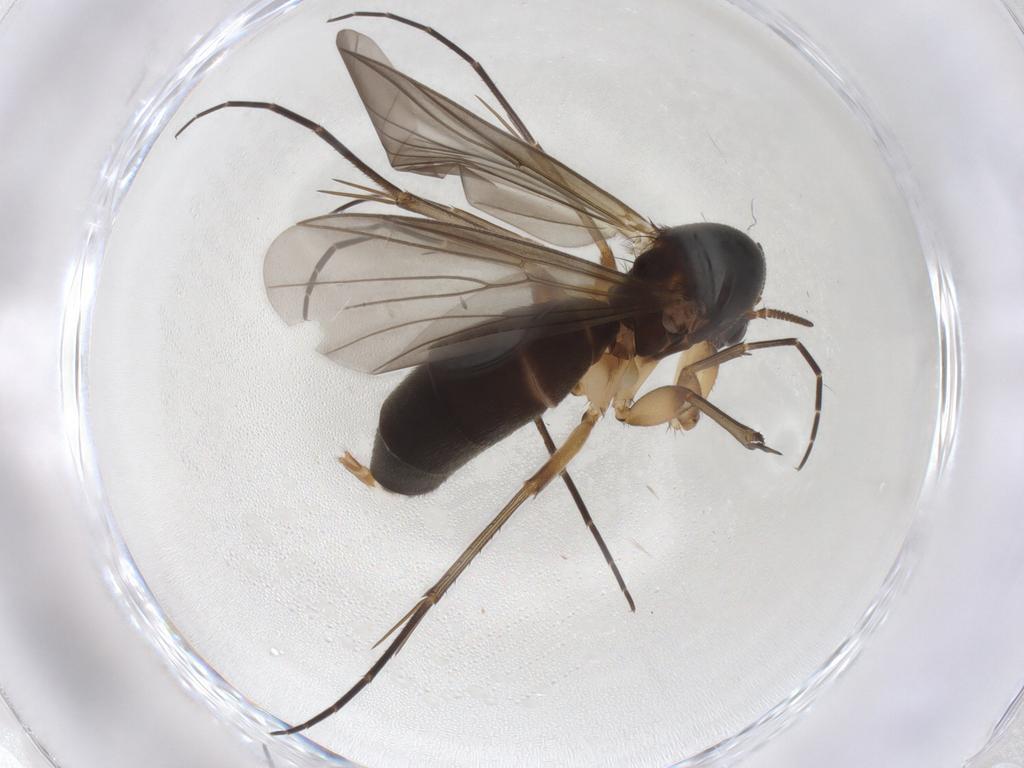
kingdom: Animalia
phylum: Arthropoda
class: Insecta
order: Diptera
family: Mycetophilidae
